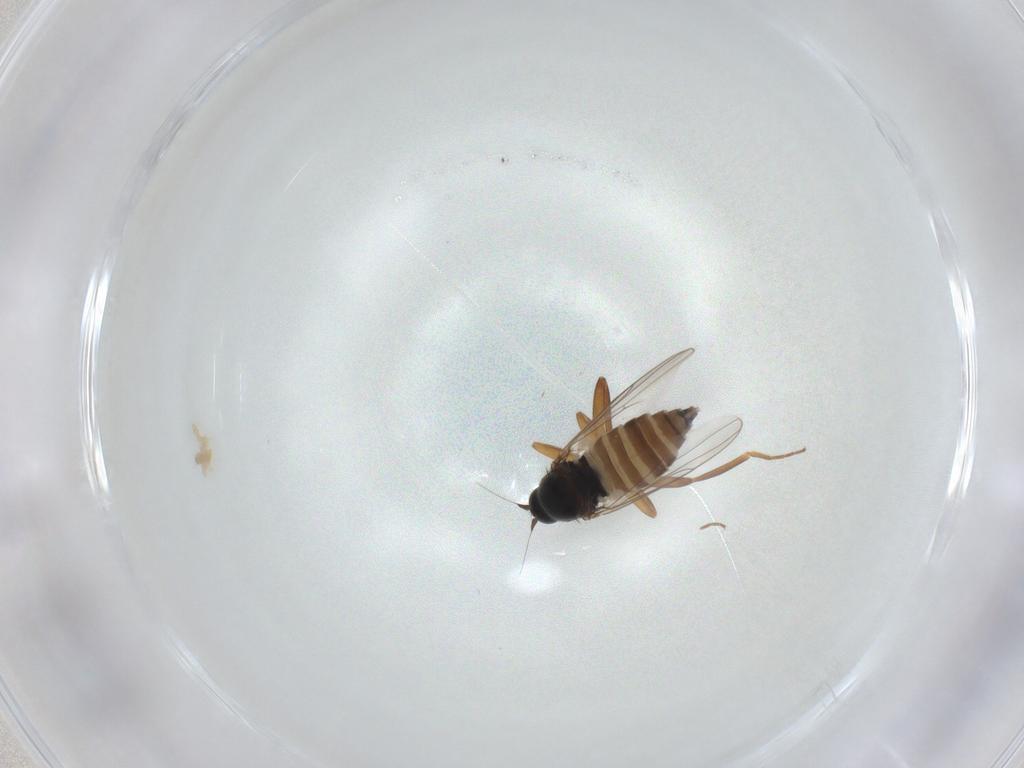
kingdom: Animalia
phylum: Arthropoda
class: Insecta
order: Diptera
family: Hybotidae
